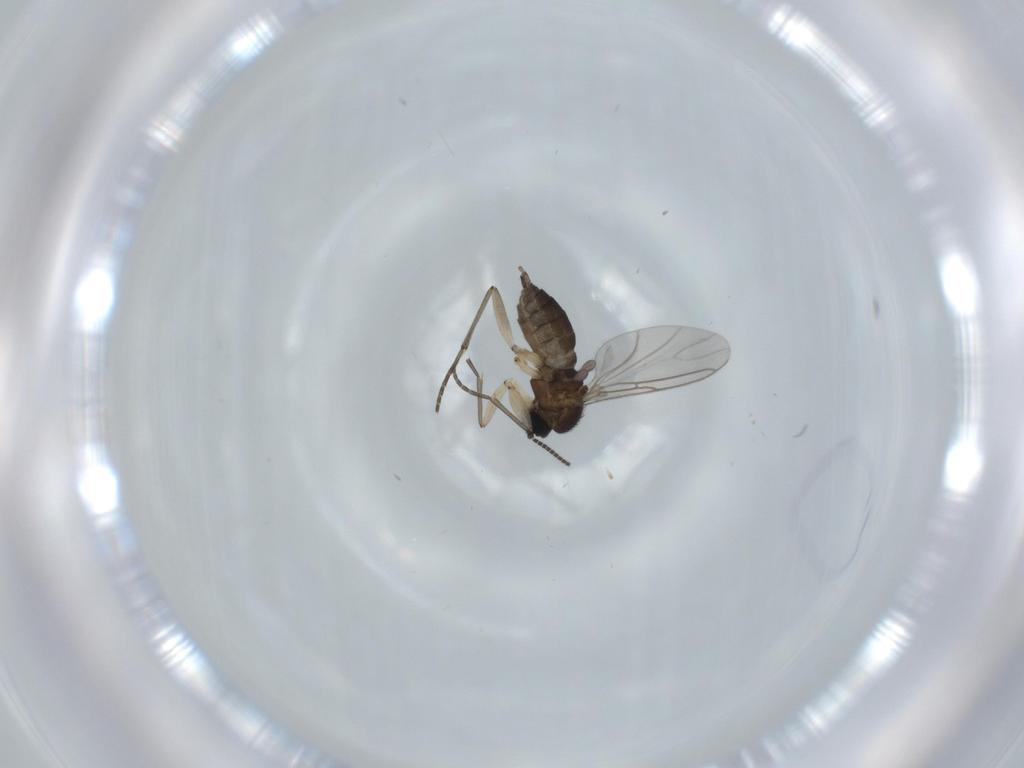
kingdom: Animalia
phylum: Arthropoda
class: Insecta
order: Diptera
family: Sciaridae
